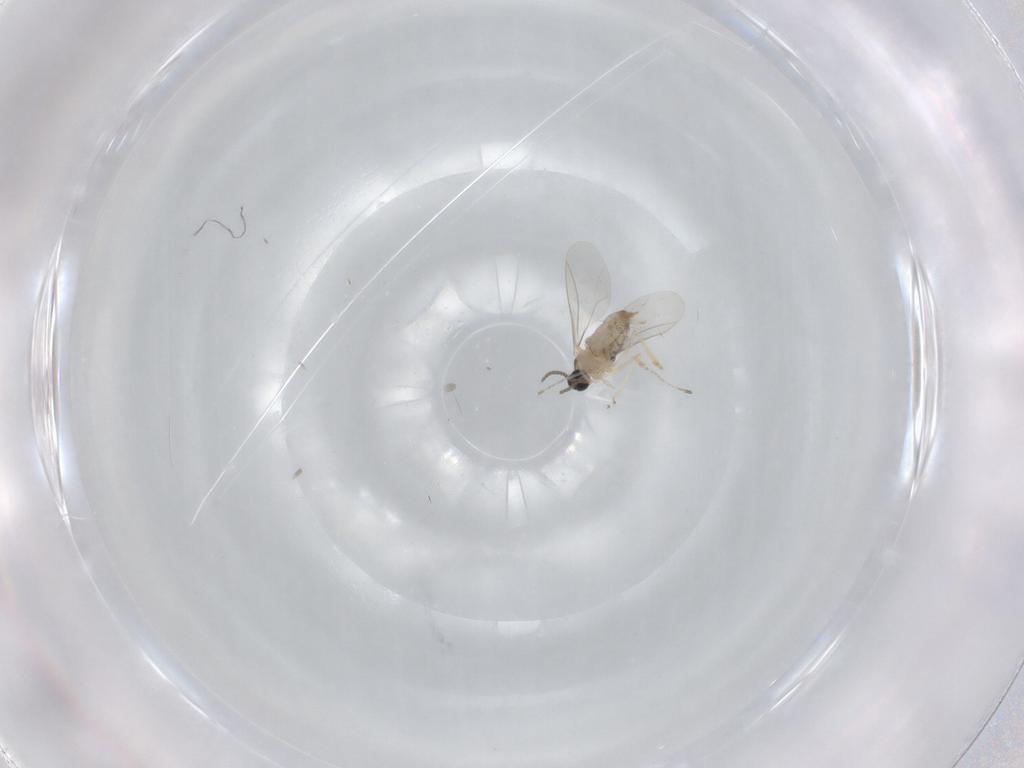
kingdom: Animalia
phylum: Arthropoda
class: Insecta
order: Diptera
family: Cecidomyiidae
